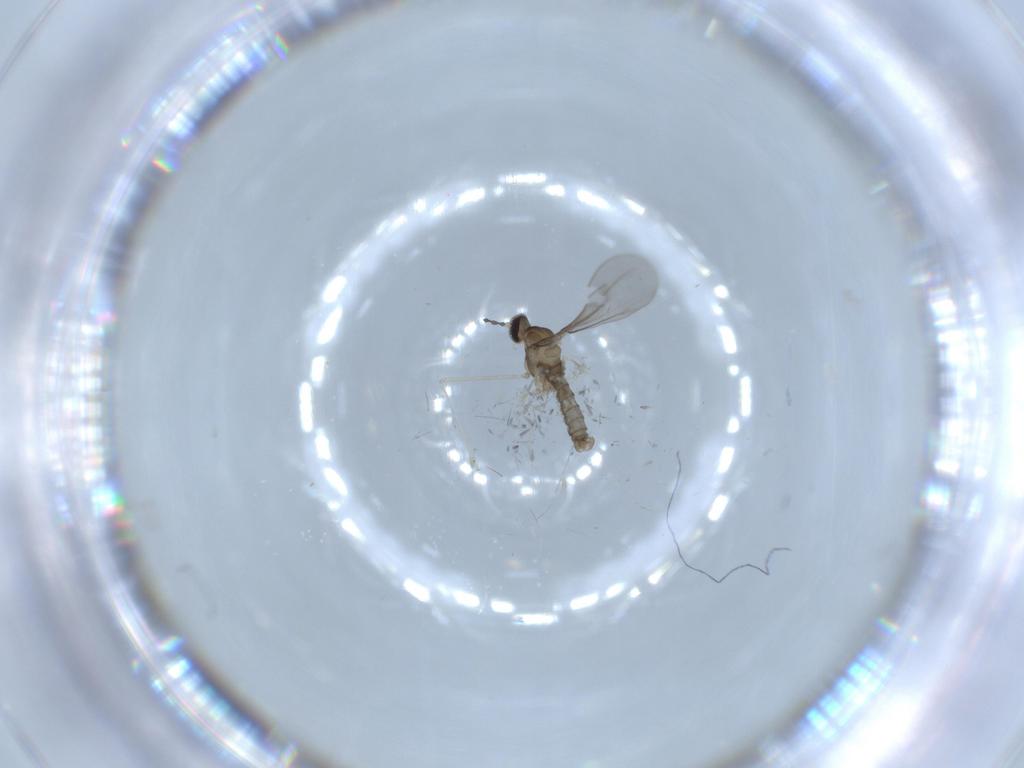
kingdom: Animalia
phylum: Arthropoda
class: Insecta
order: Diptera
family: Cecidomyiidae
